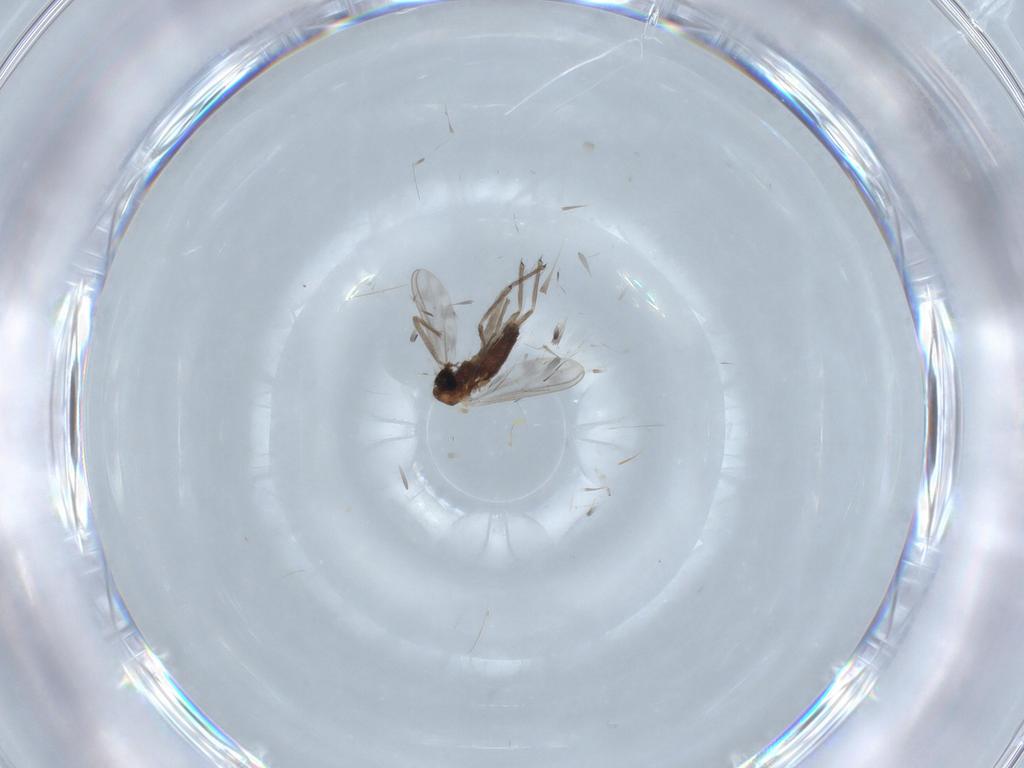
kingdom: Animalia
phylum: Arthropoda
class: Insecta
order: Diptera
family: Chironomidae
